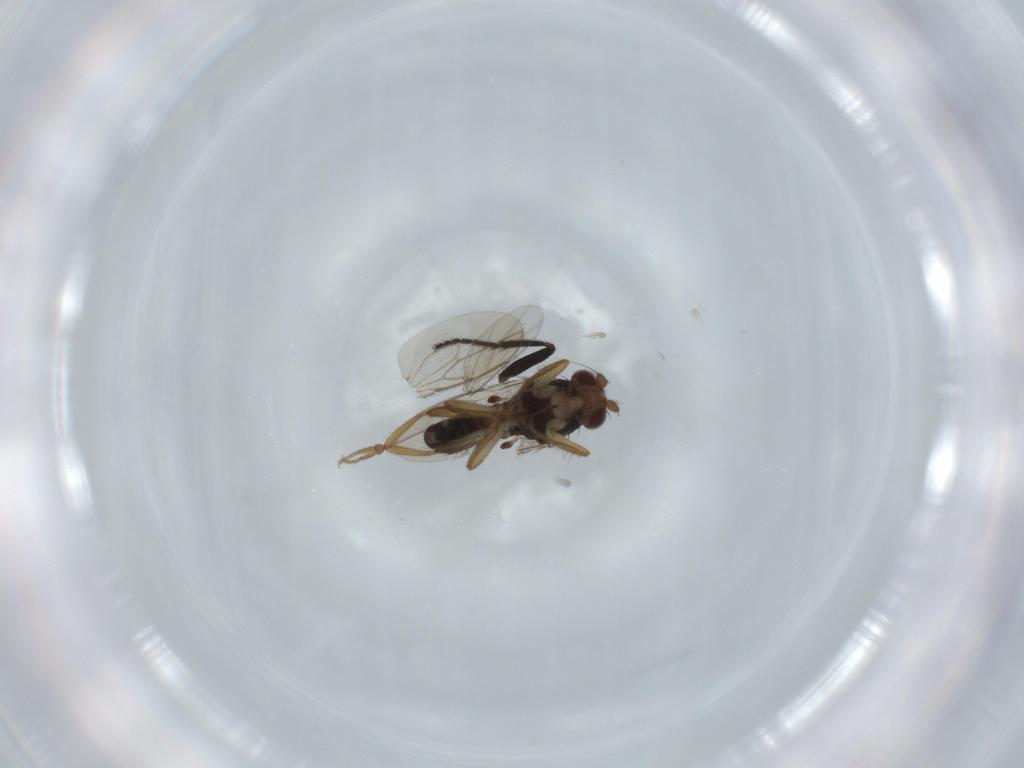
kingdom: Animalia
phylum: Arthropoda
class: Insecta
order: Diptera
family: Sphaeroceridae
